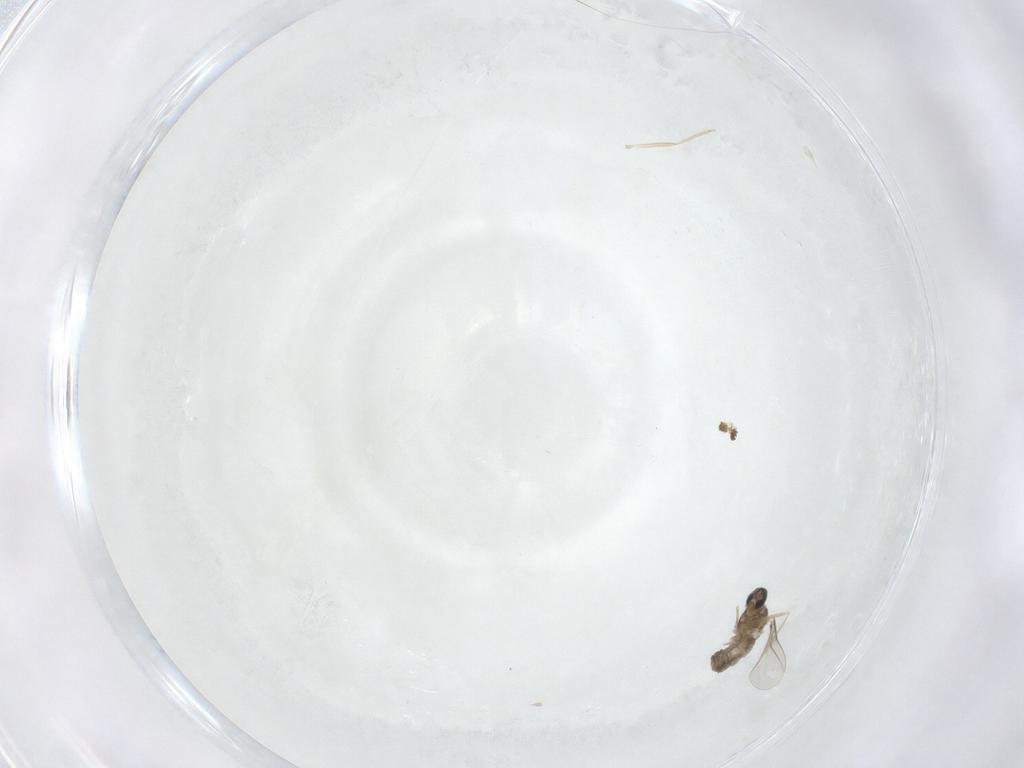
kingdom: Animalia
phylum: Arthropoda
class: Insecta
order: Diptera
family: Cecidomyiidae
